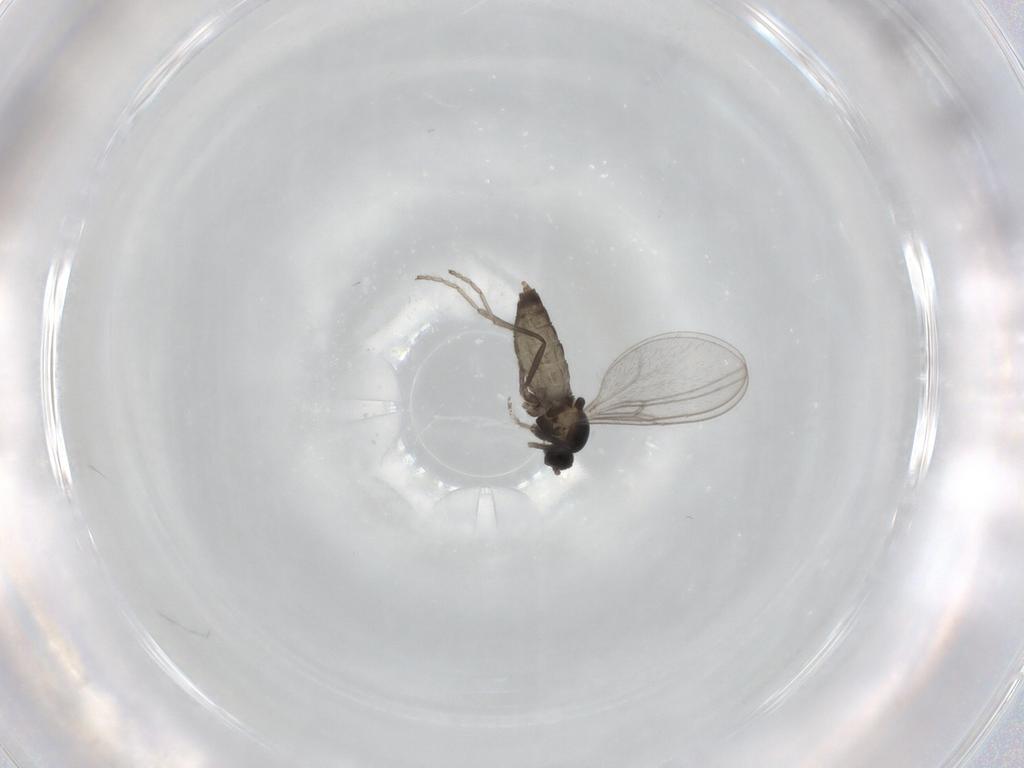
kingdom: Animalia
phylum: Arthropoda
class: Insecta
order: Diptera
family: Cecidomyiidae
